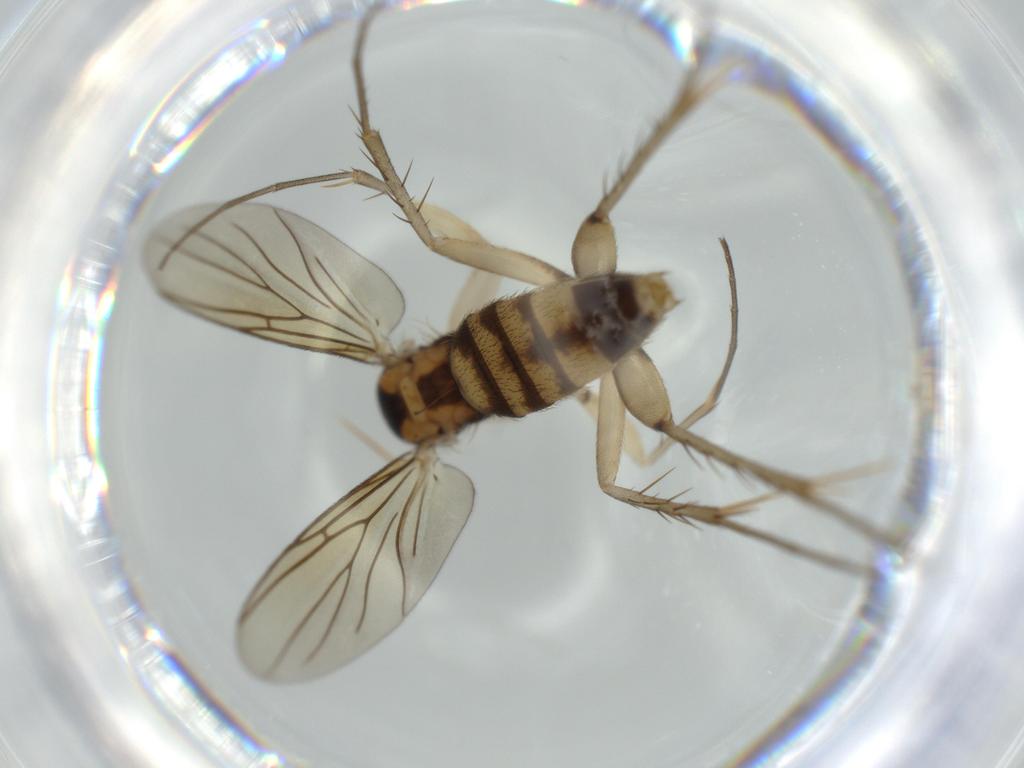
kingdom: Animalia
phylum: Arthropoda
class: Insecta
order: Diptera
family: Mycetophilidae
